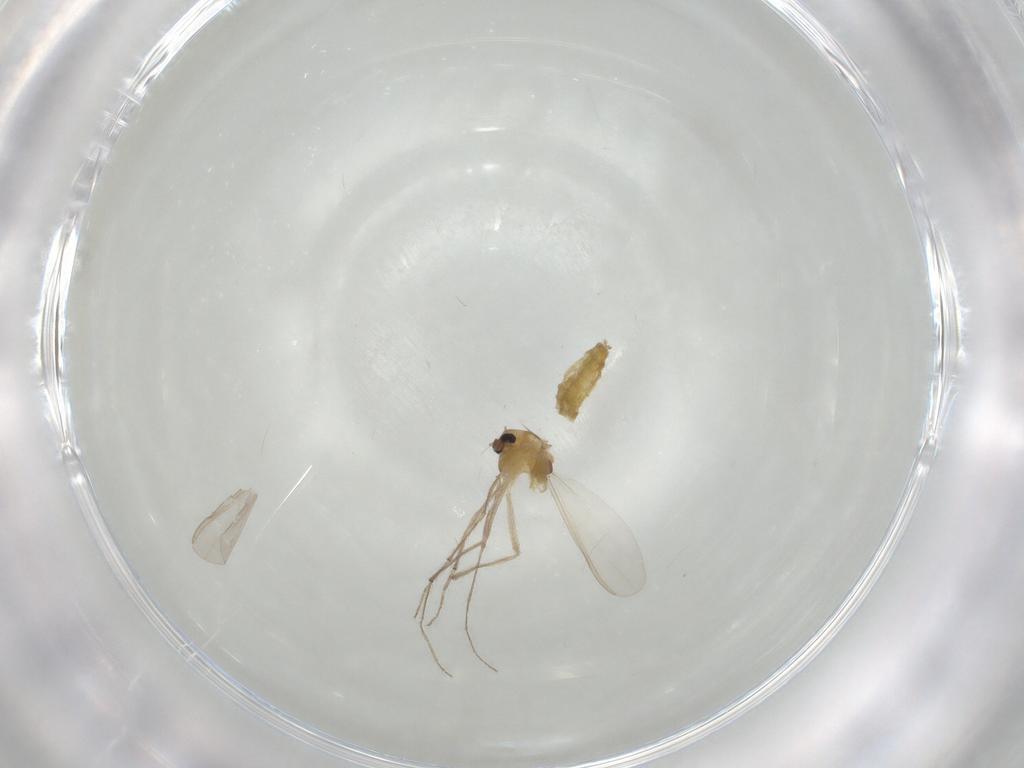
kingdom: Animalia
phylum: Arthropoda
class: Insecta
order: Diptera
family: Chironomidae
